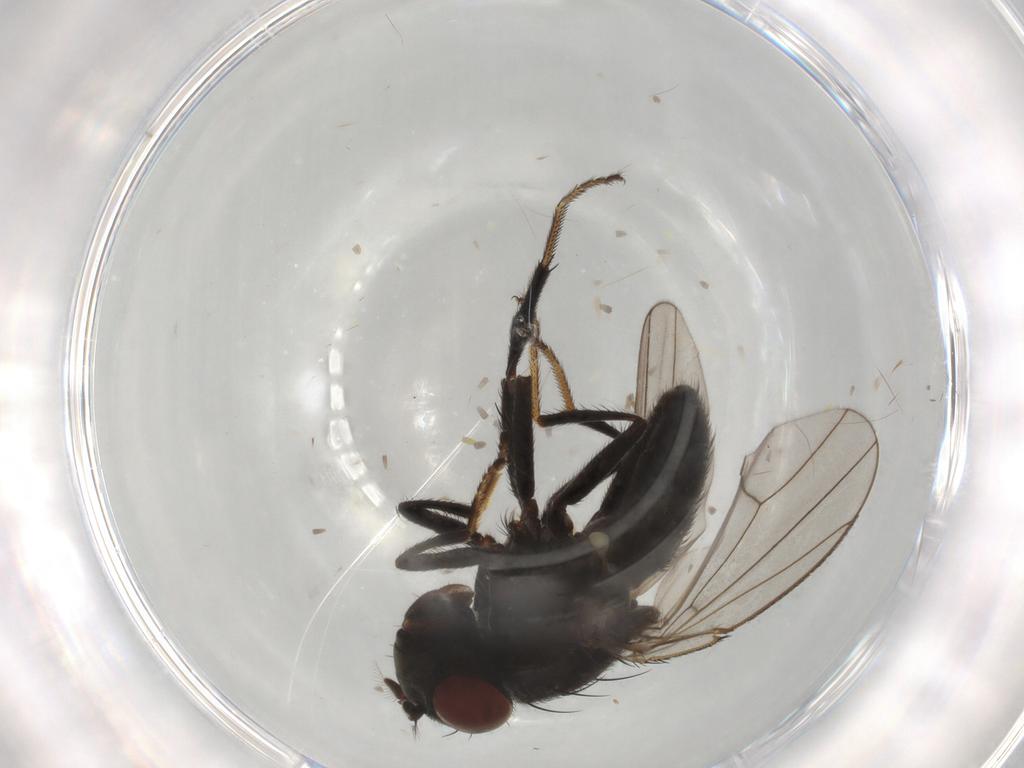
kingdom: Animalia
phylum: Arthropoda
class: Insecta
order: Diptera
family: Ephydridae
